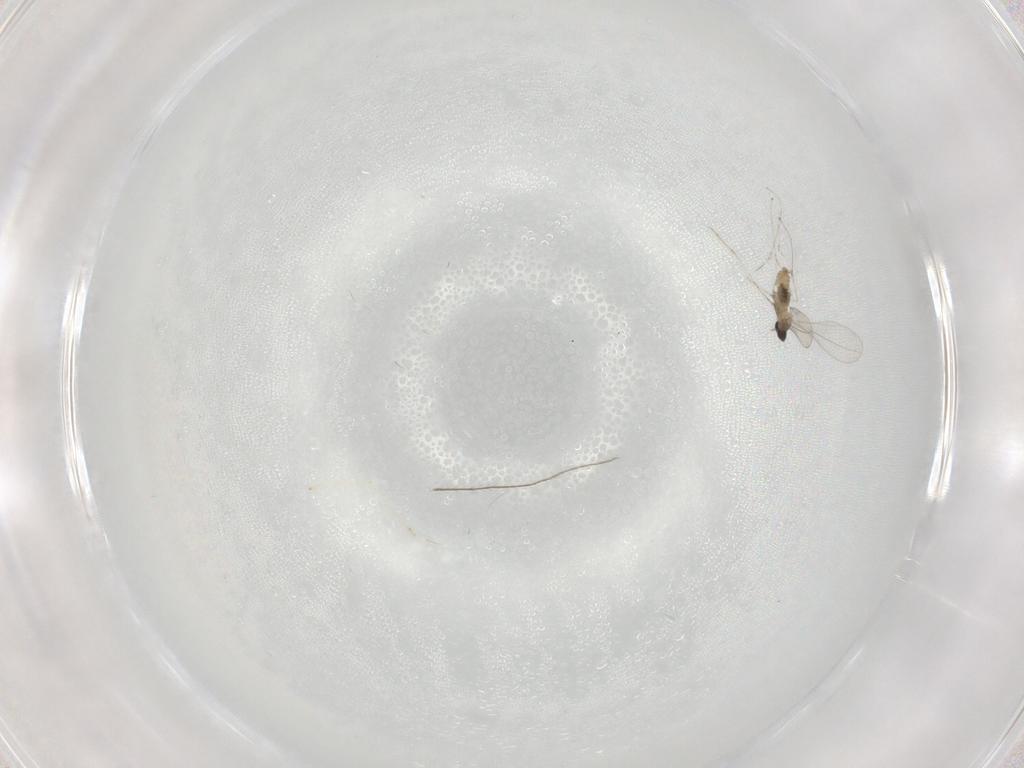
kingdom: Animalia
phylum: Arthropoda
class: Insecta
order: Diptera
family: Cecidomyiidae
